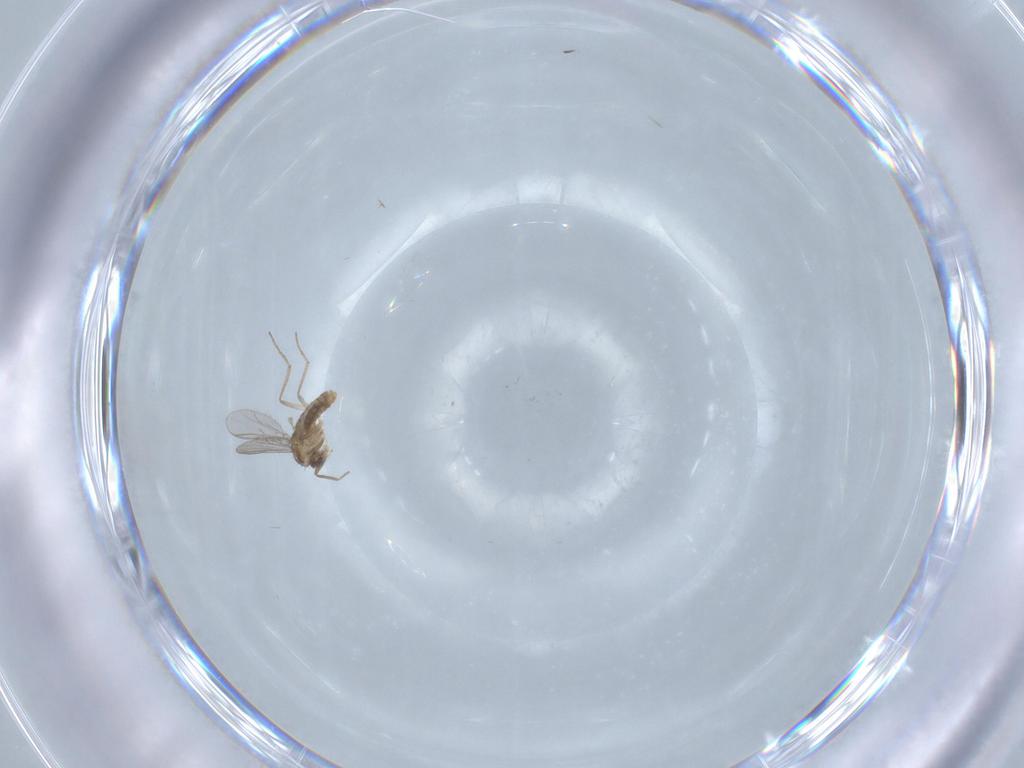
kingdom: Animalia
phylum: Arthropoda
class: Insecta
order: Diptera
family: Chironomidae
